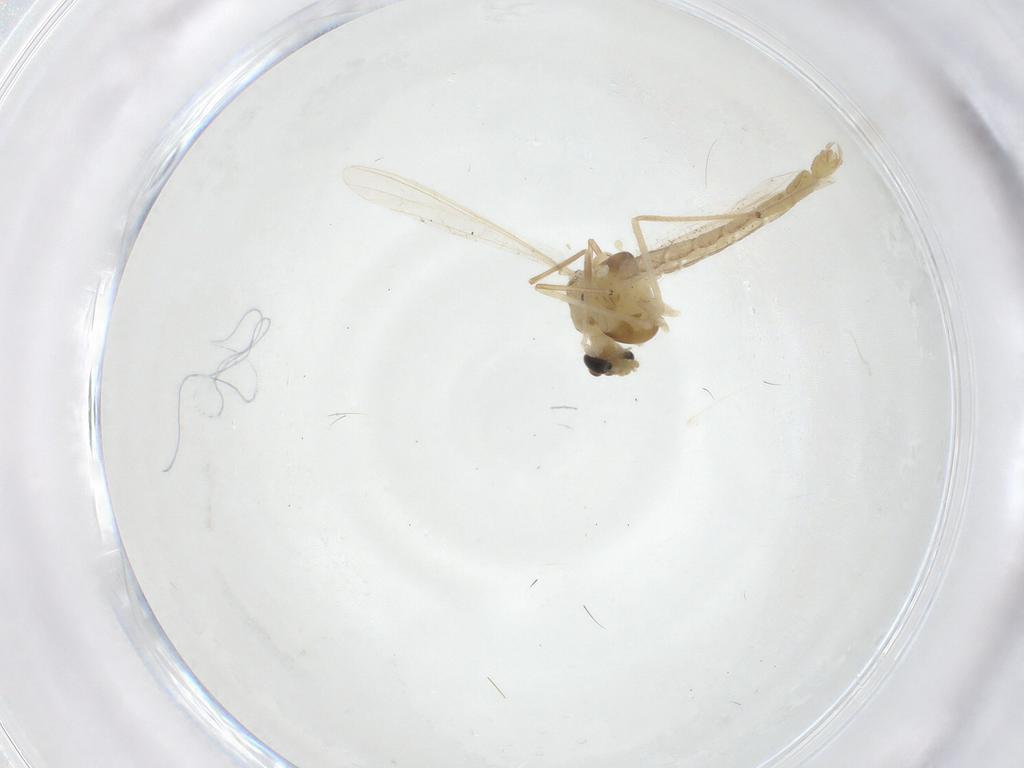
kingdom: Animalia
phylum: Arthropoda
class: Insecta
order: Diptera
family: Chironomidae
